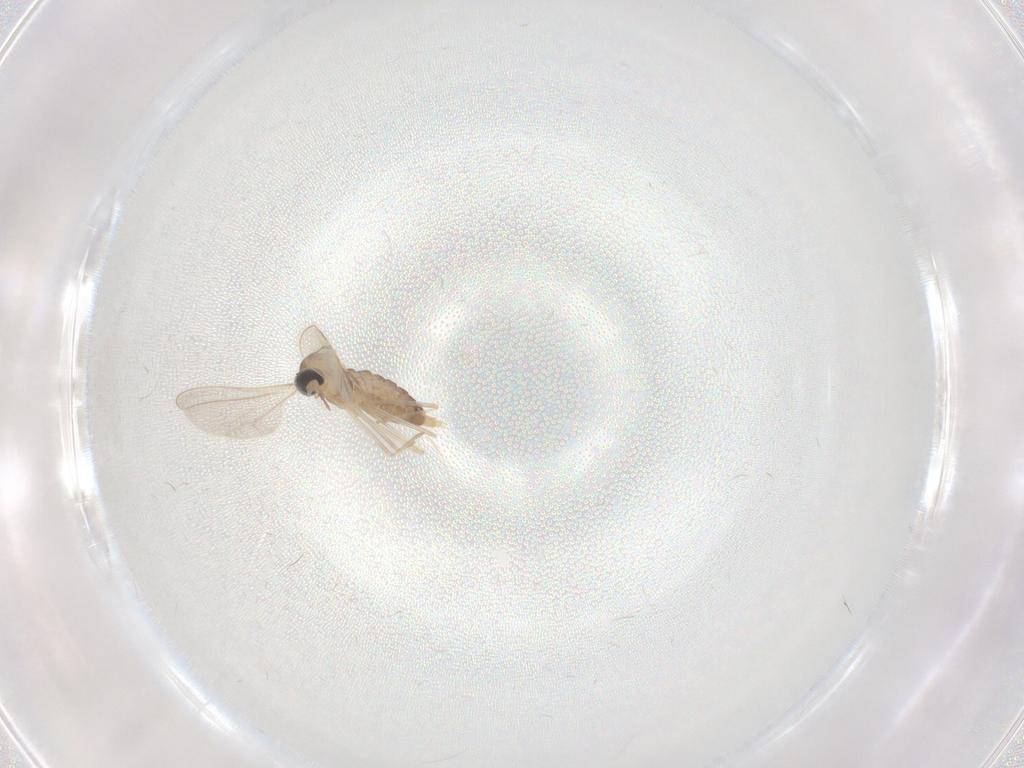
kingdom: Animalia
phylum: Arthropoda
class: Insecta
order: Diptera
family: Cecidomyiidae
